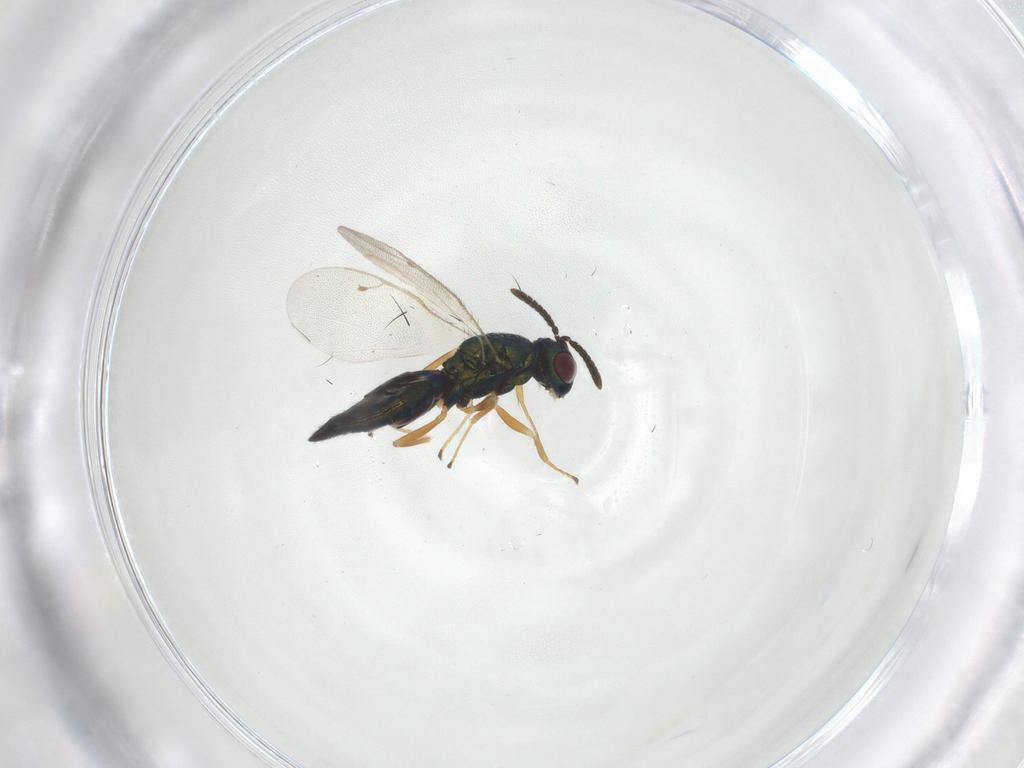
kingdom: Animalia
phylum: Arthropoda
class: Insecta
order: Hymenoptera
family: Pteromalidae
